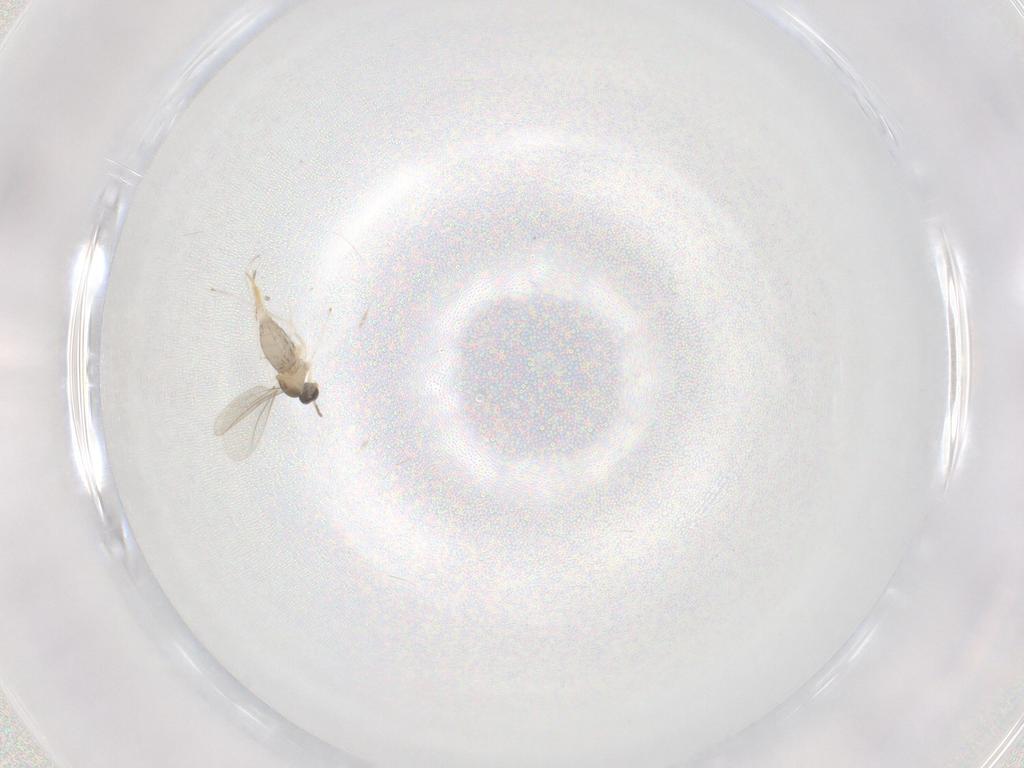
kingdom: Animalia
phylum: Arthropoda
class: Insecta
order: Diptera
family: Cecidomyiidae
